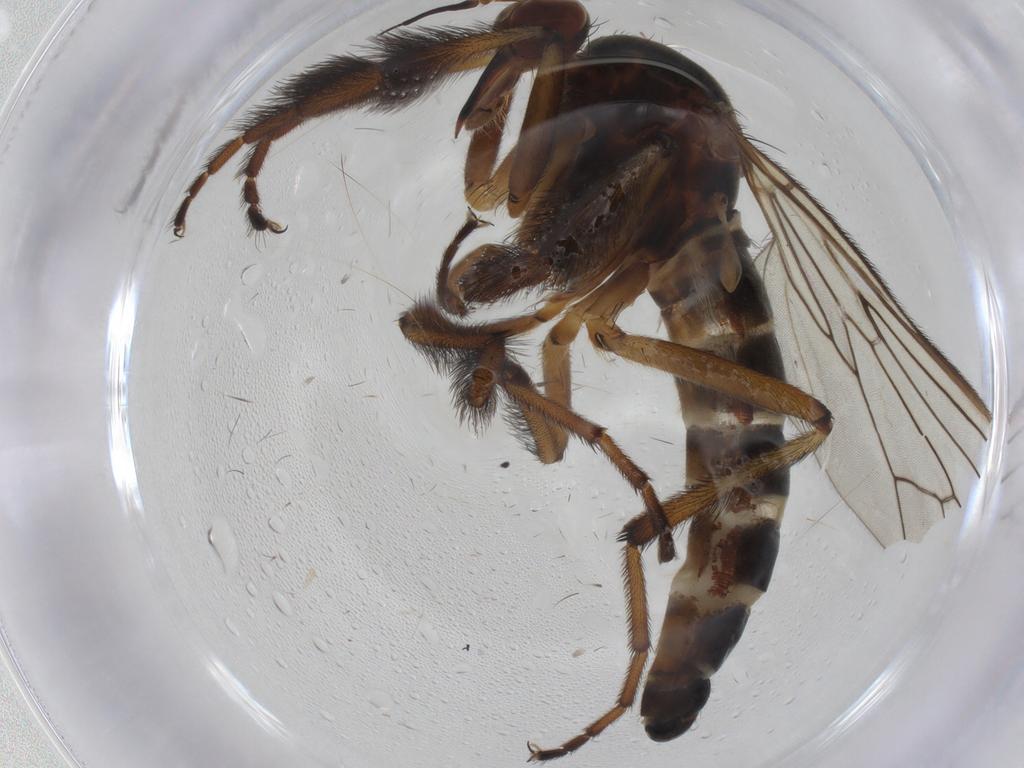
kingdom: Animalia
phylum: Arthropoda
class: Insecta
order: Diptera
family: Empididae
